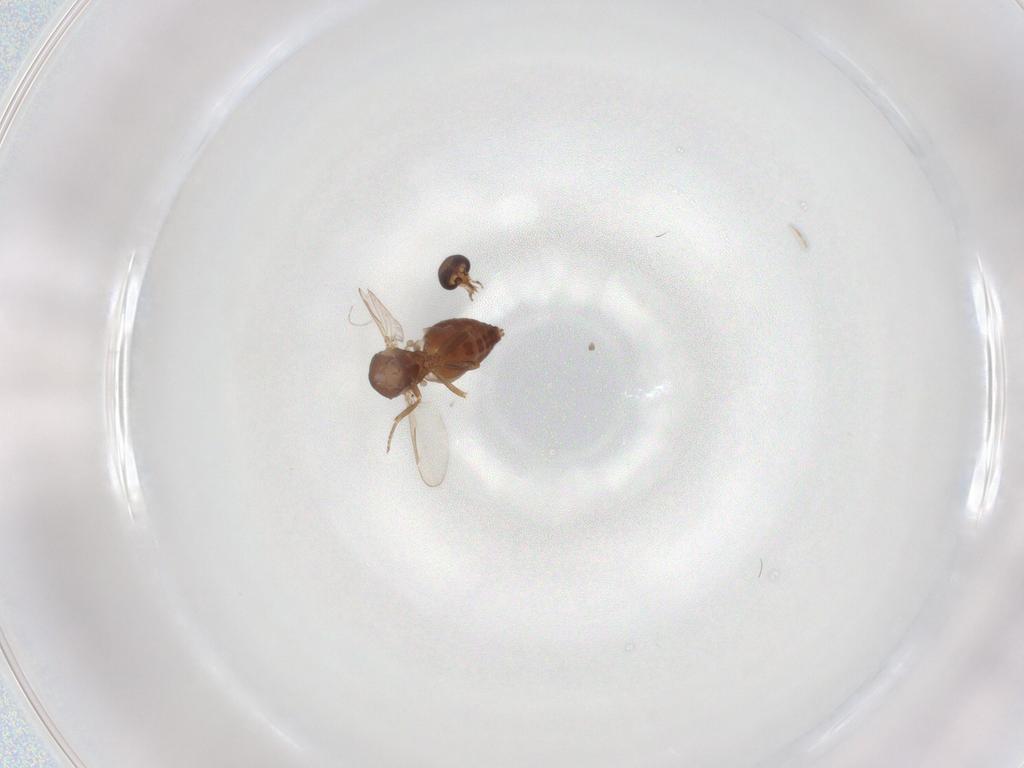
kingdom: Animalia
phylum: Arthropoda
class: Insecta
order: Diptera
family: Ceratopogonidae
